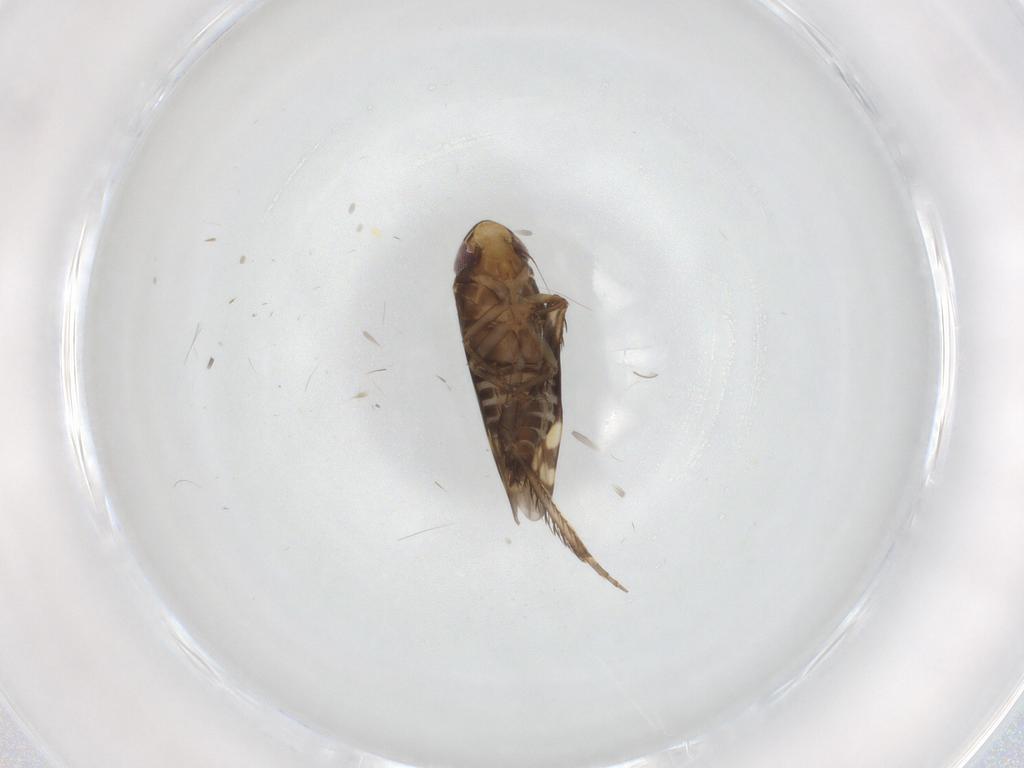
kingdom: Animalia
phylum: Arthropoda
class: Insecta
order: Hemiptera
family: Cicadellidae
